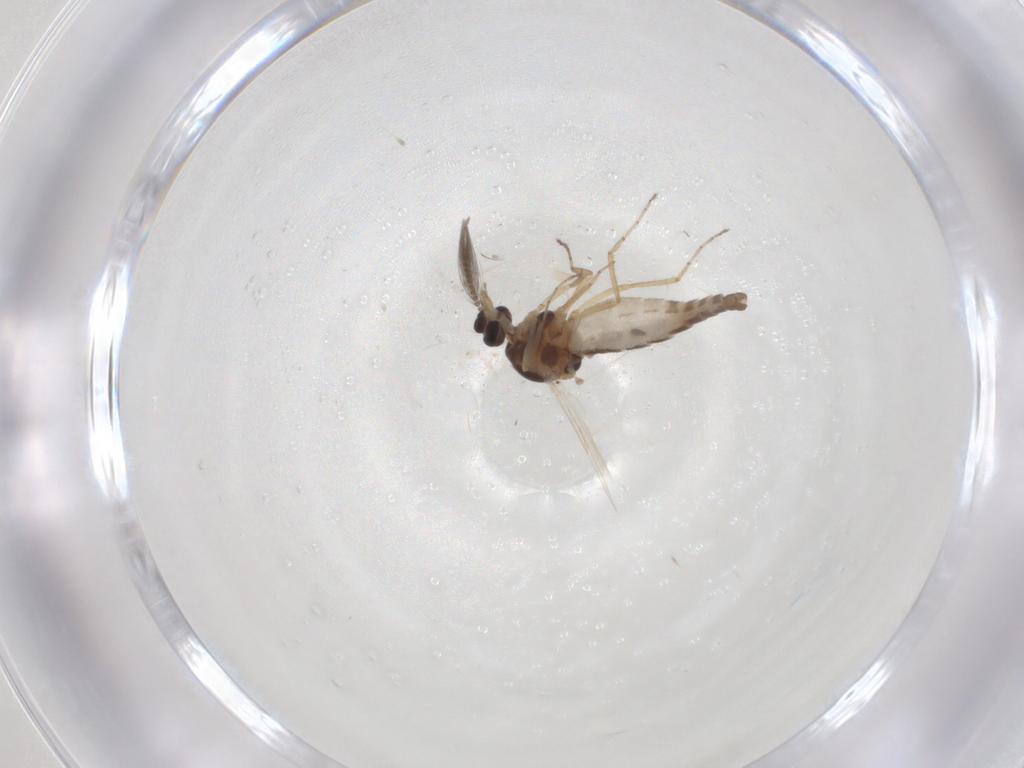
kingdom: Animalia
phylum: Arthropoda
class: Insecta
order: Diptera
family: Ceratopogonidae
